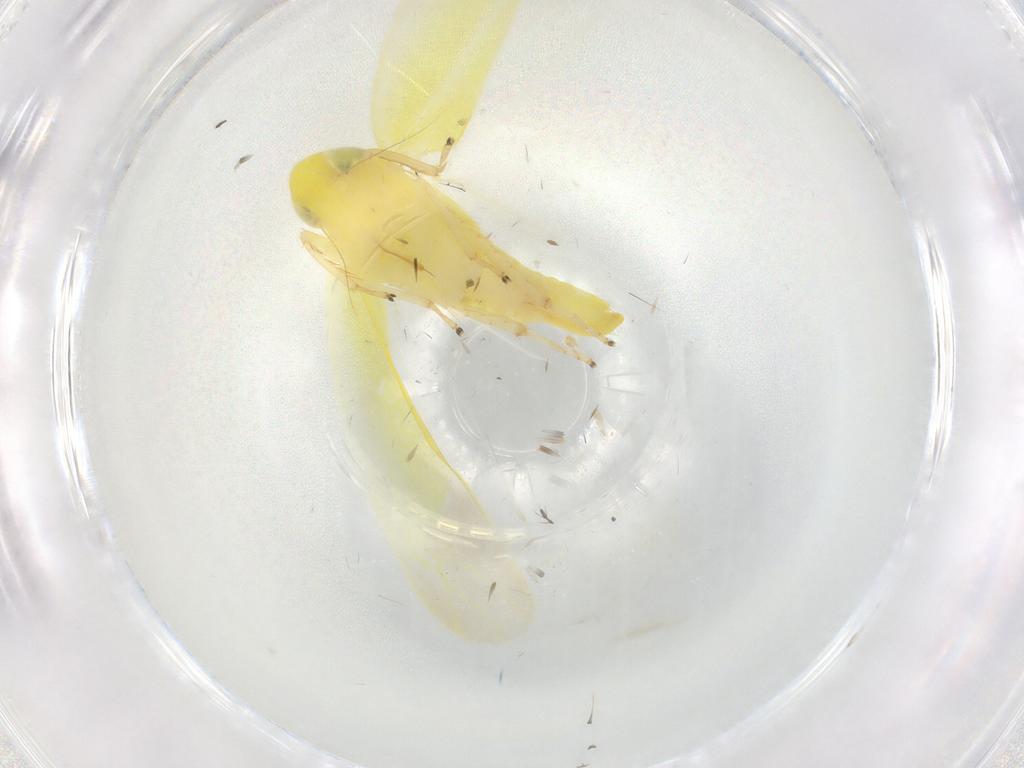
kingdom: Animalia
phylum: Arthropoda
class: Insecta
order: Hemiptera
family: Cicadellidae
